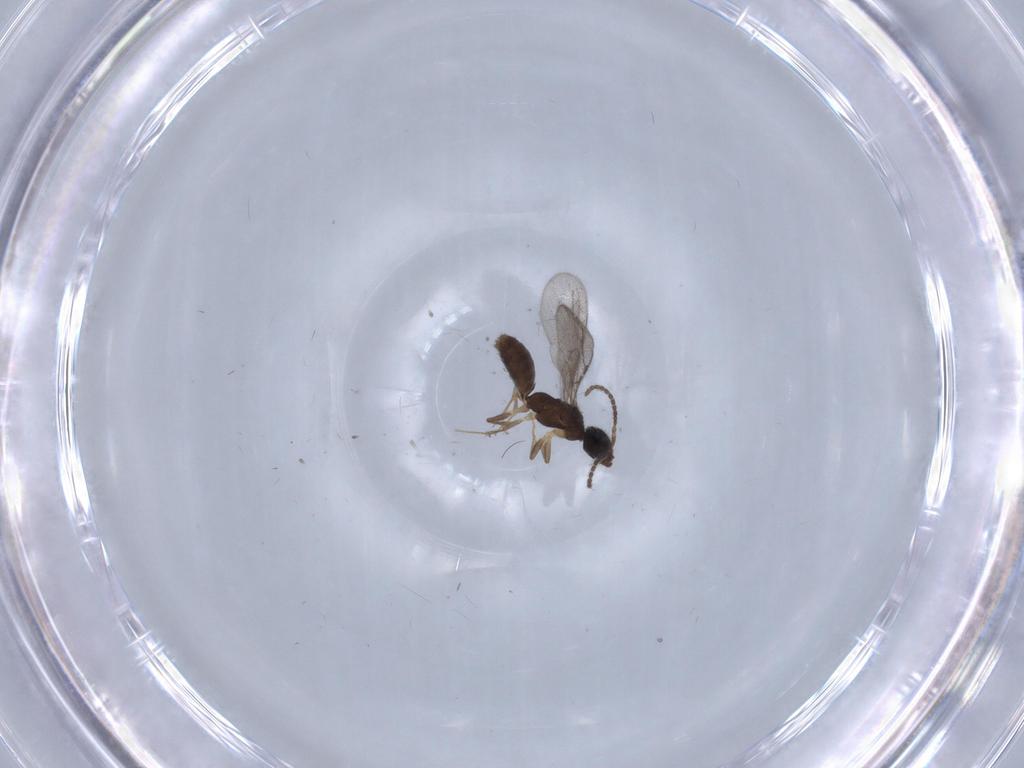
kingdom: Animalia
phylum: Arthropoda
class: Insecta
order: Hymenoptera
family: Bethylidae
